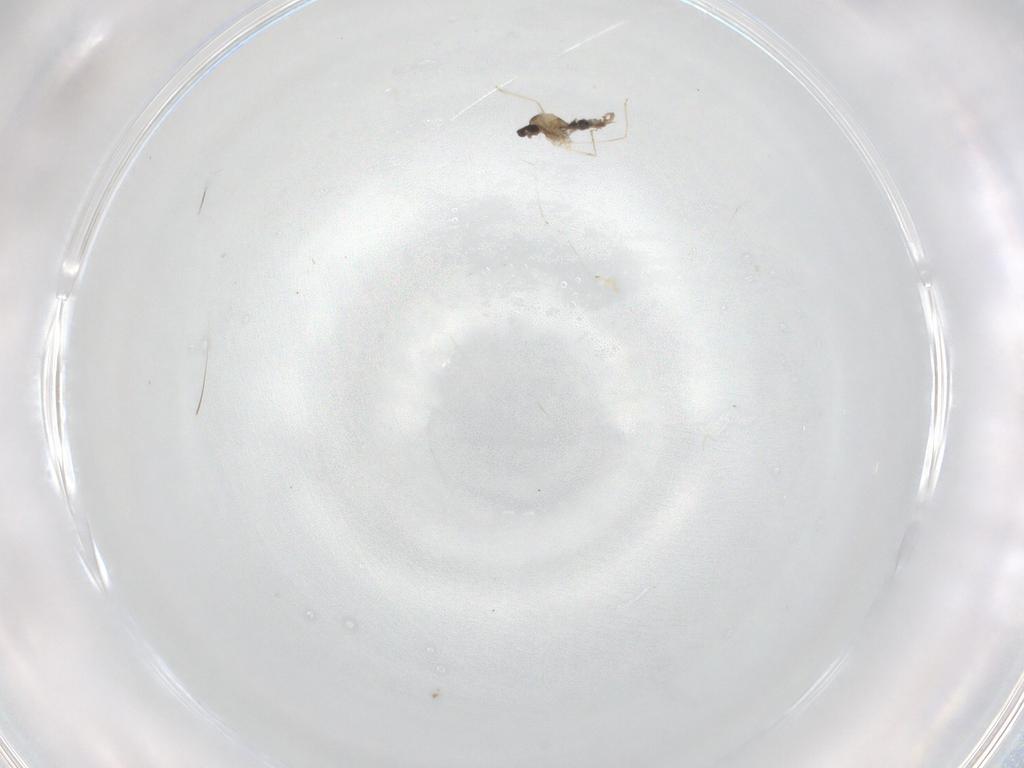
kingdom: Animalia
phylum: Arthropoda
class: Insecta
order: Diptera
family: Cecidomyiidae
